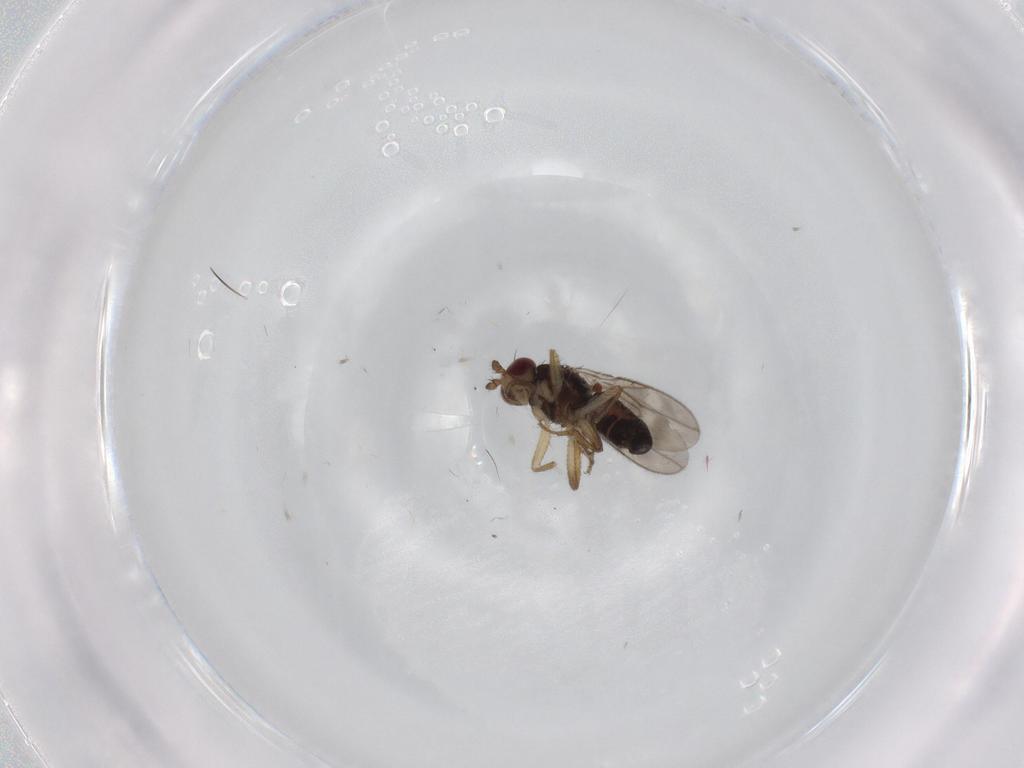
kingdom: Animalia
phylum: Arthropoda
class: Insecta
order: Diptera
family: Sphaeroceridae
